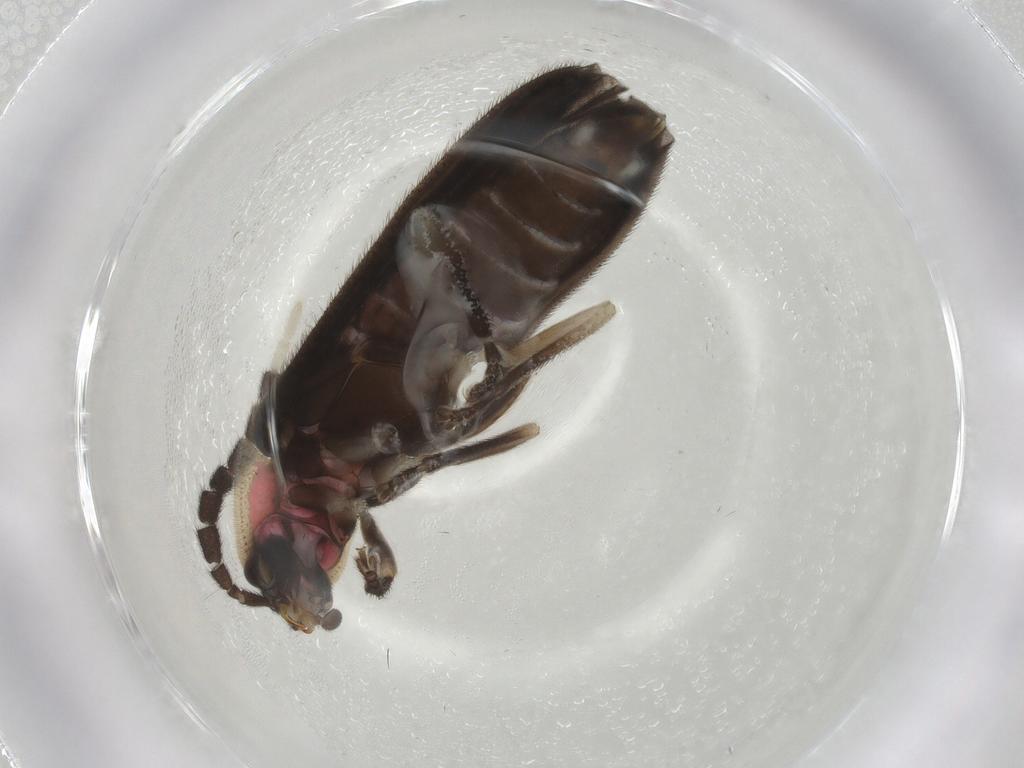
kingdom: Animalia
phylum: Arthropoda
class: Insecta
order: Coleoptera
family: Lampyridae
